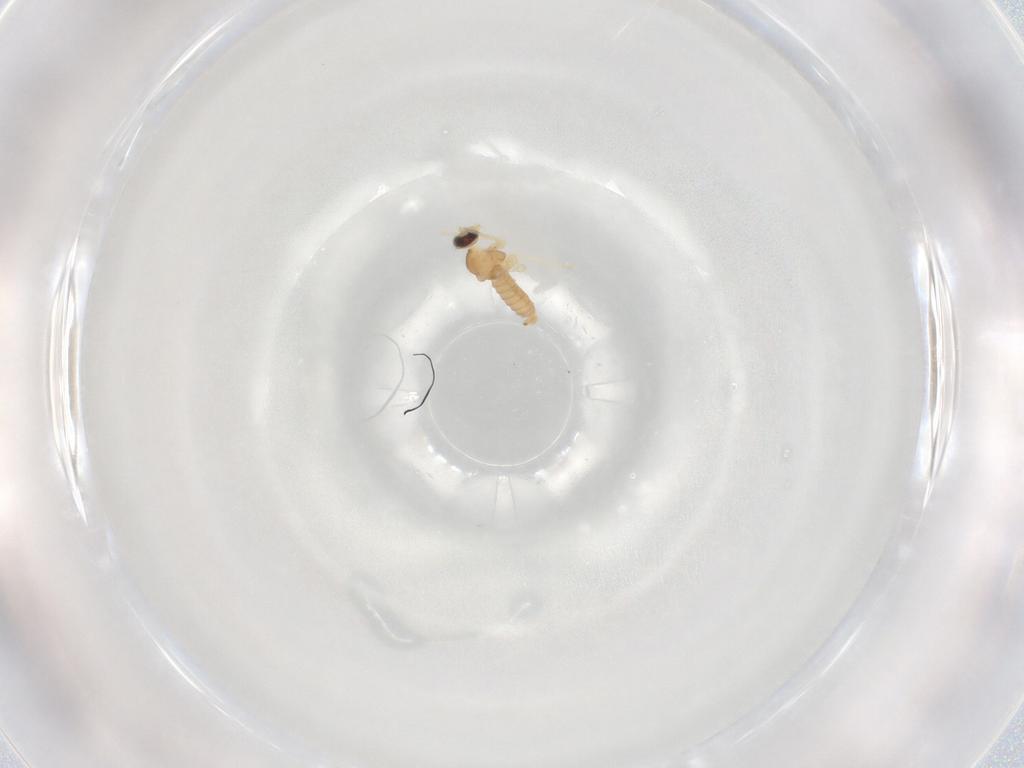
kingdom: Animalia
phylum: Arthropoda
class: Insecta
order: Diptera
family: Cecidomyiidae
